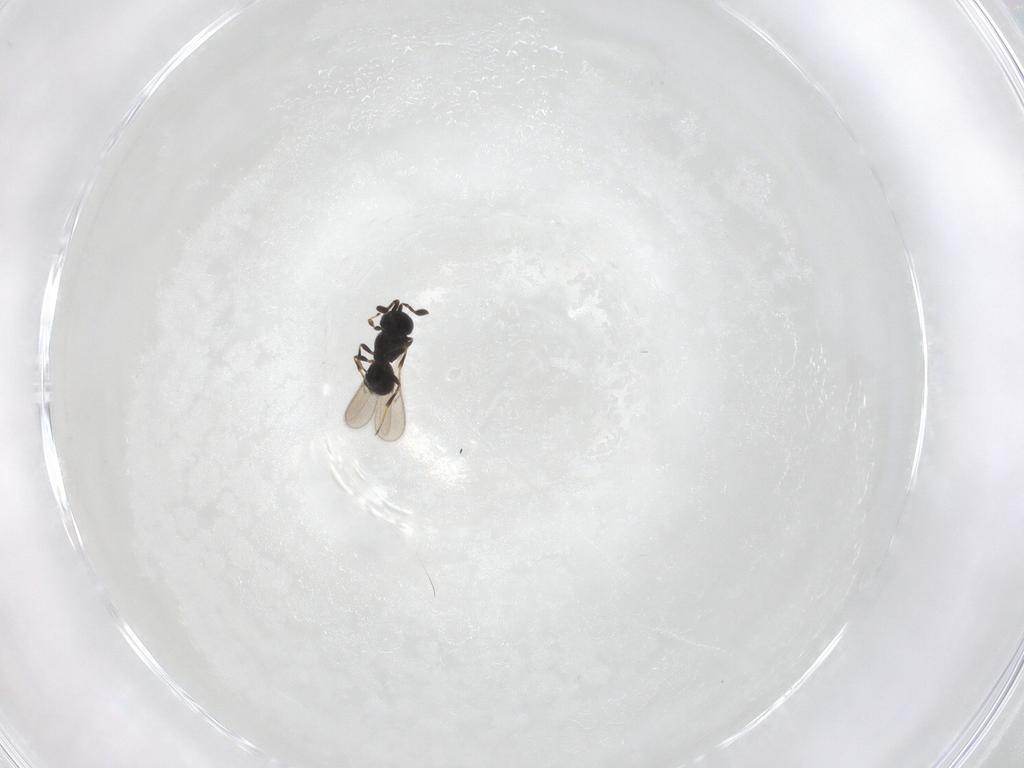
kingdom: Animalia
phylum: Arthropoda
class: Insecta
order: Hymenoptera
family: Scelionidae
